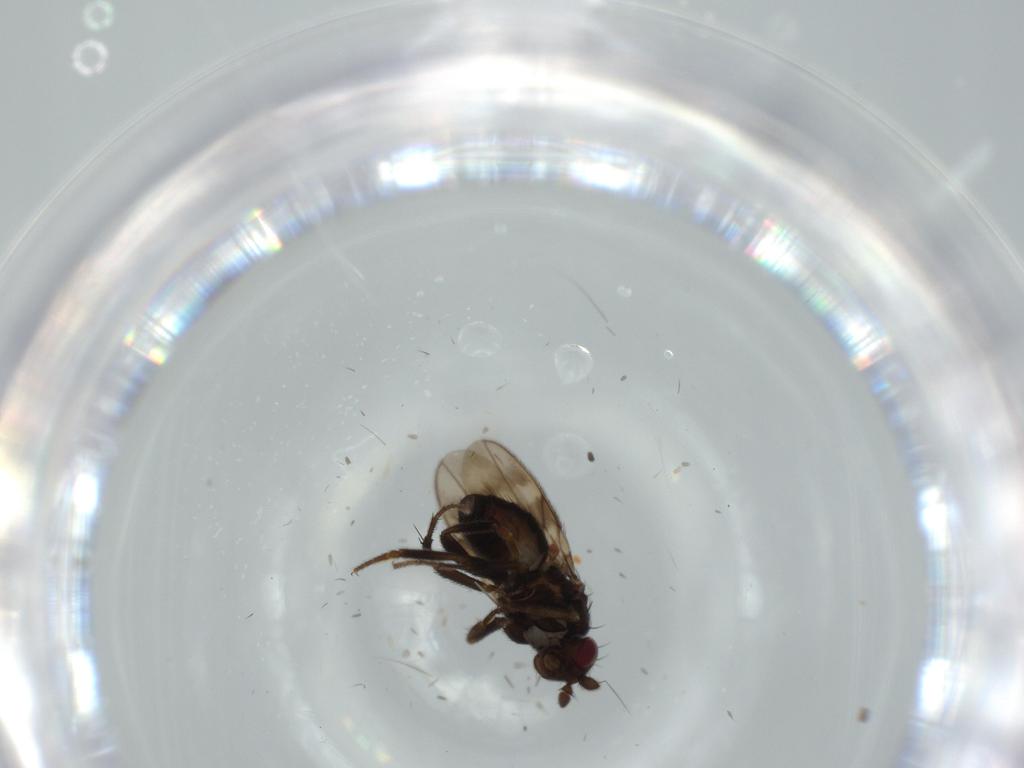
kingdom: Animalia
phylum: Arthropoda
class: Insecta
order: Diptera
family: Sphaeroceridae
